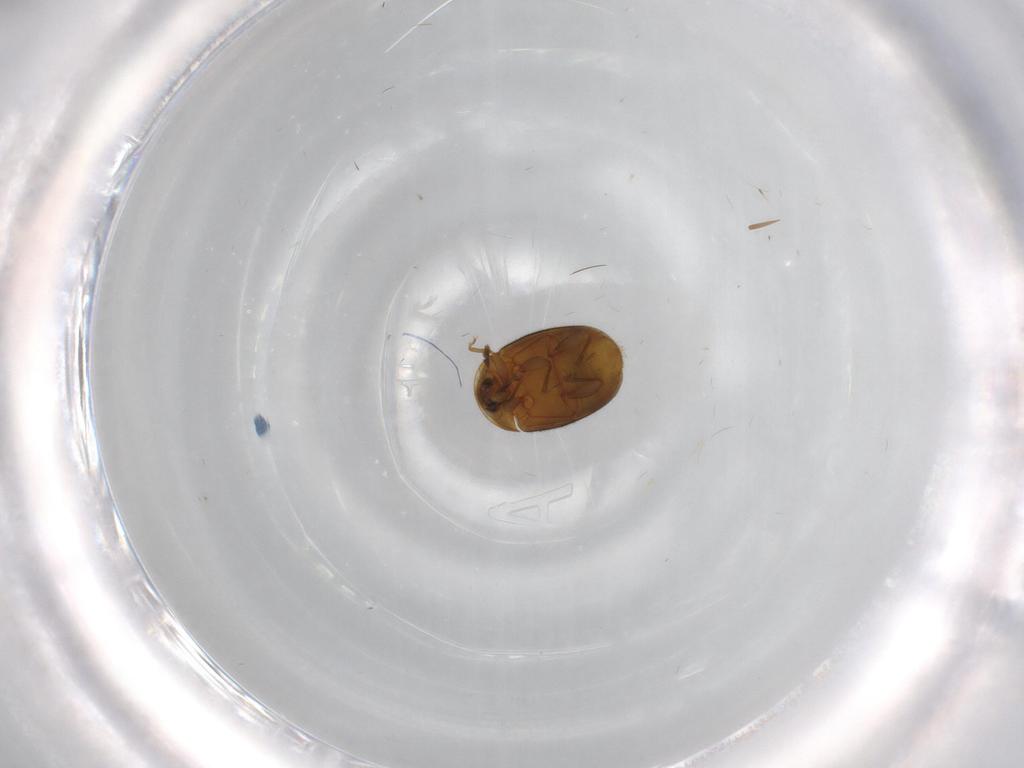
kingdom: Animalia
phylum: Arthropoda
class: Insecta
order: Coleoptera
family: Corylophidae
